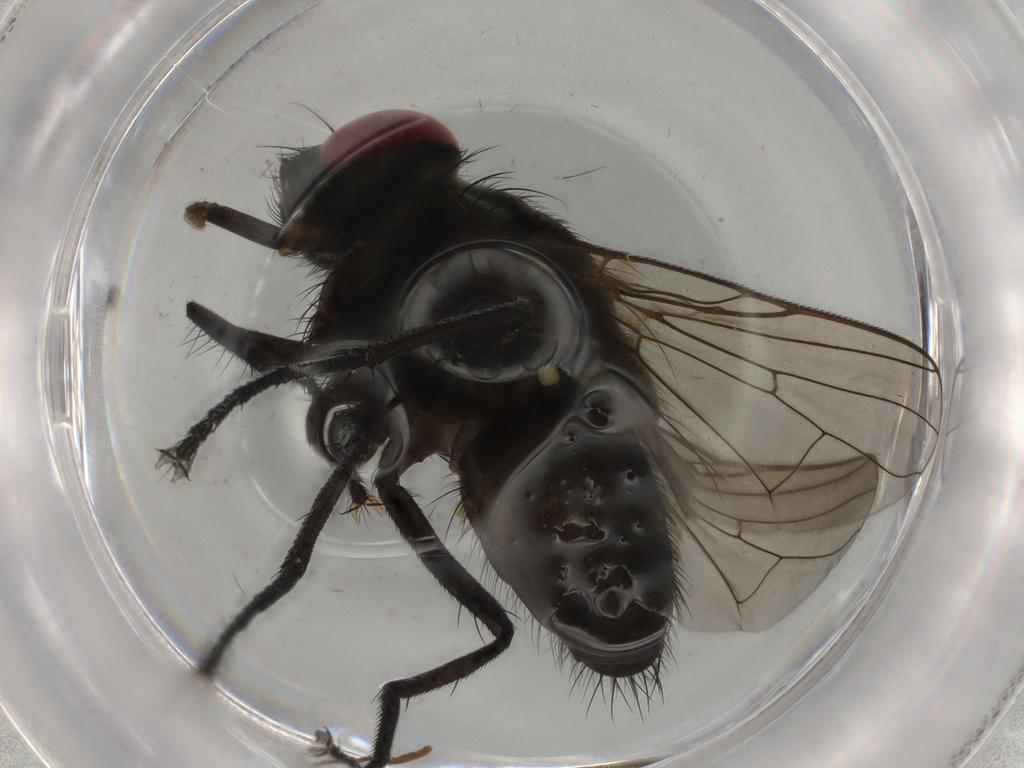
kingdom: Animalia
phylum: Arthropoda
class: Insecta
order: Diptera
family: Muscidae
